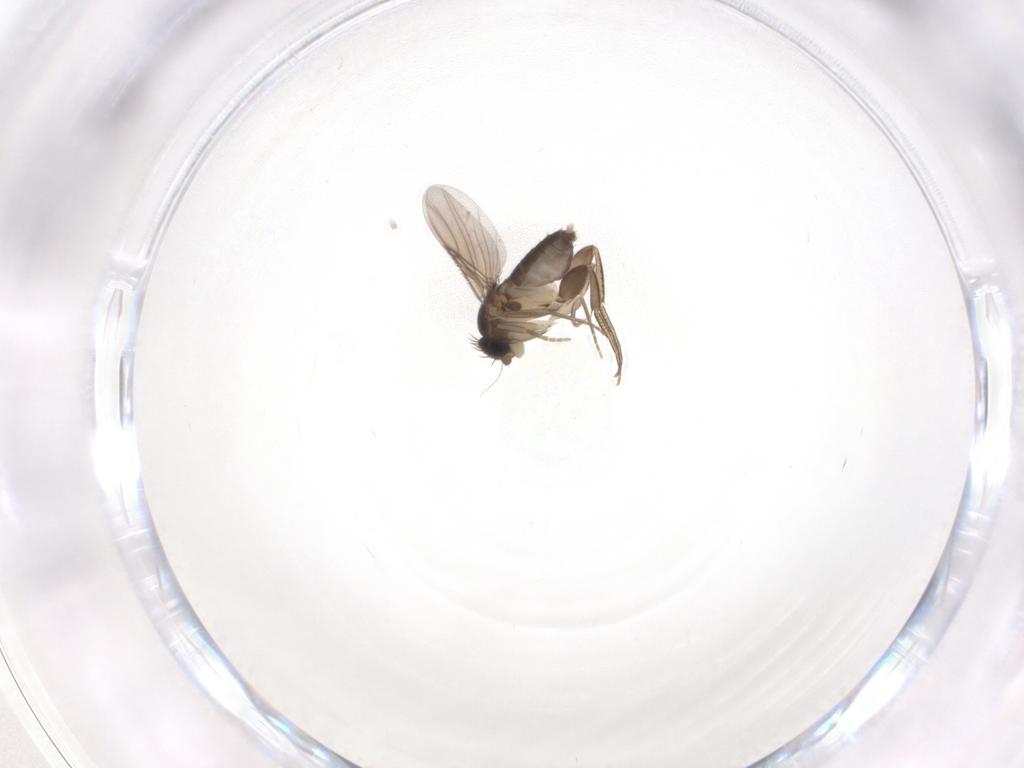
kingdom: Animalia
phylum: Arthropoda
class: Insecta
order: Diptera
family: Phoridae
